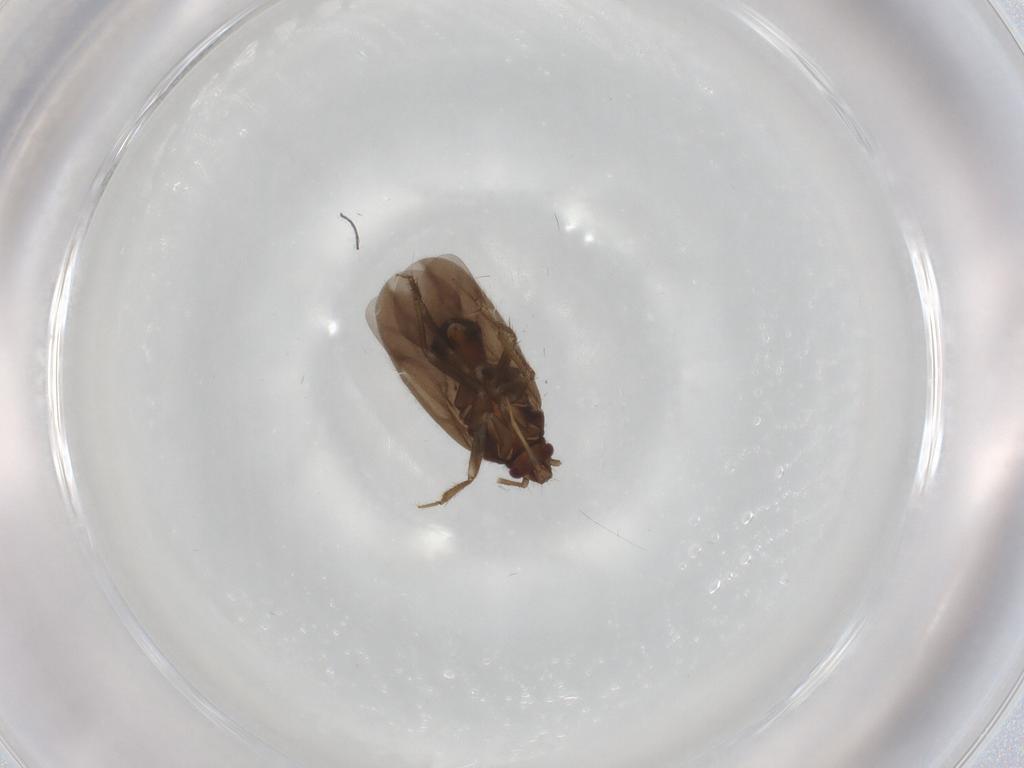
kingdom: Animalia
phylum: Arthropoda
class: Insecta
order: Hemiptera
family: Ceratocombidae
